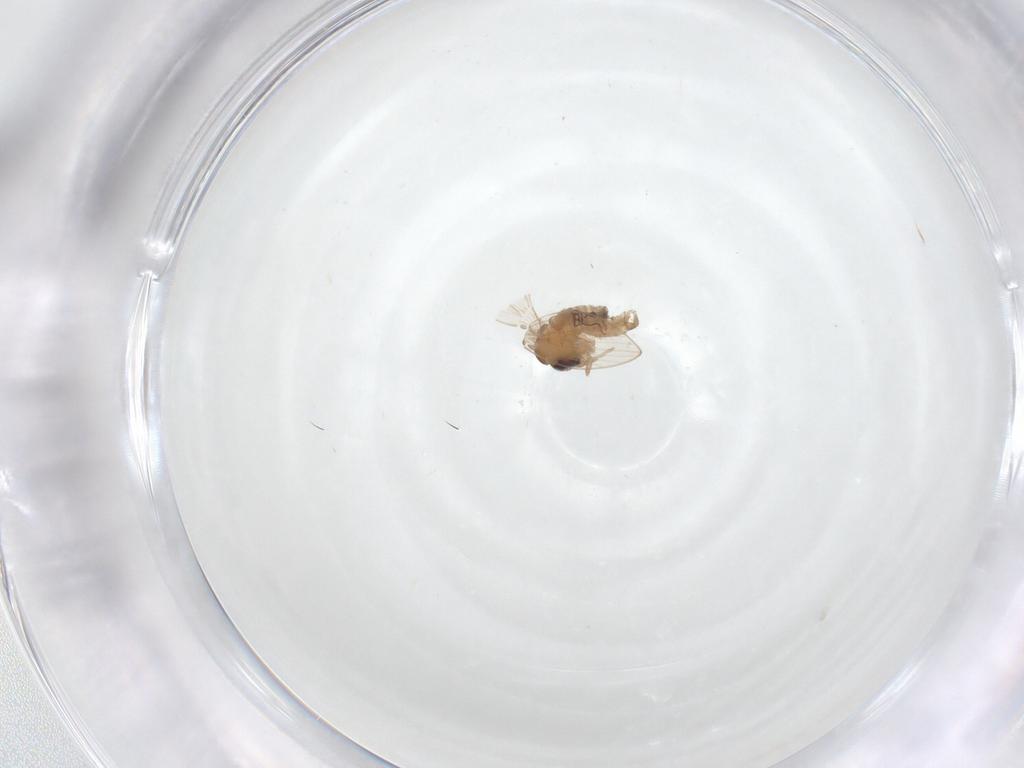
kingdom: Animalia
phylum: Arthropoda
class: Insecta
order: Diptera
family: Psychodidae
